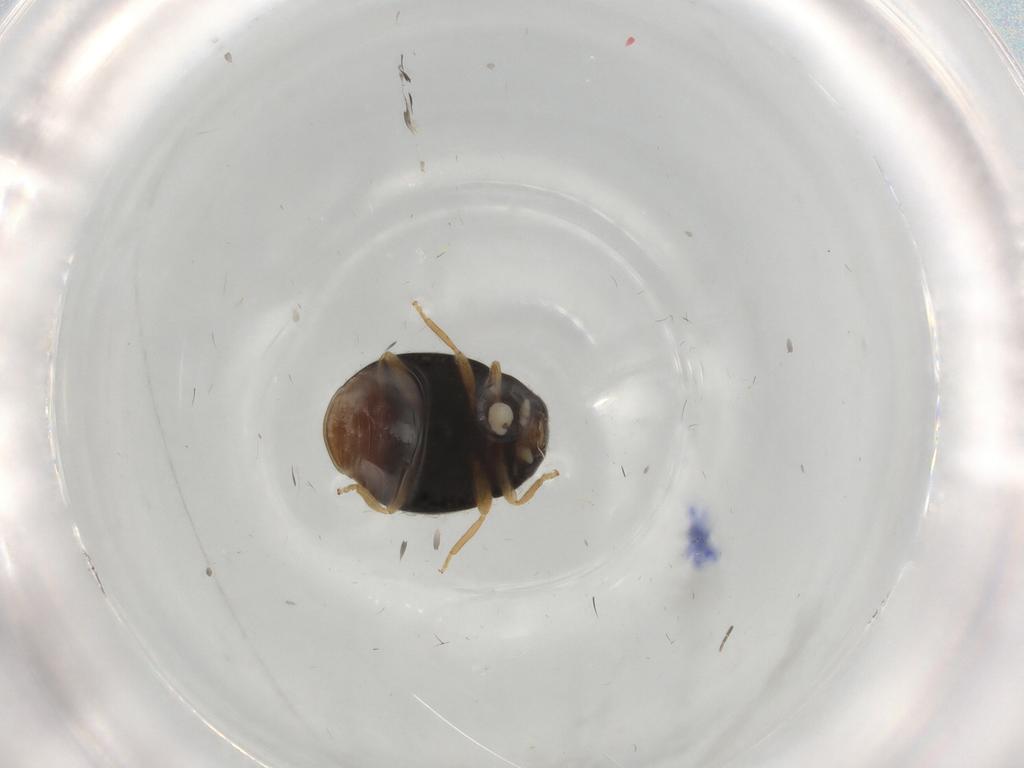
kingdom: Animalia
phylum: Arthropoda
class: Insecta
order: Coleoptera
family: Coccinellidae
